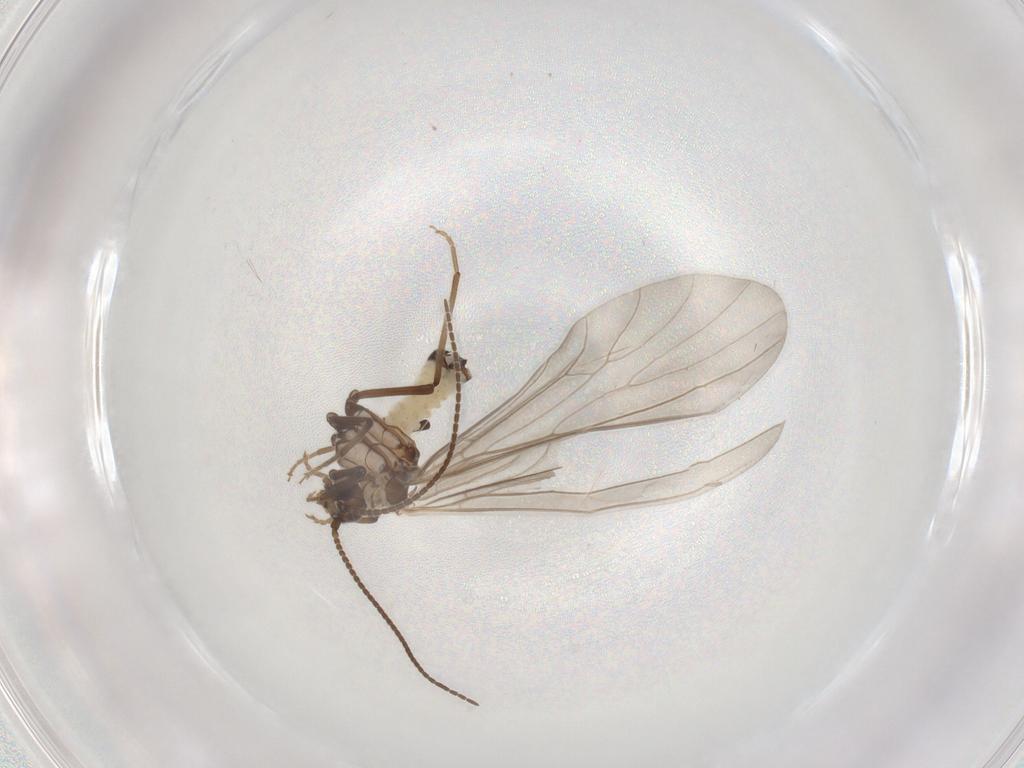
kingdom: Animalia
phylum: Arthropoda
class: Insecta
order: Neuroptera
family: Coniopterygidae
